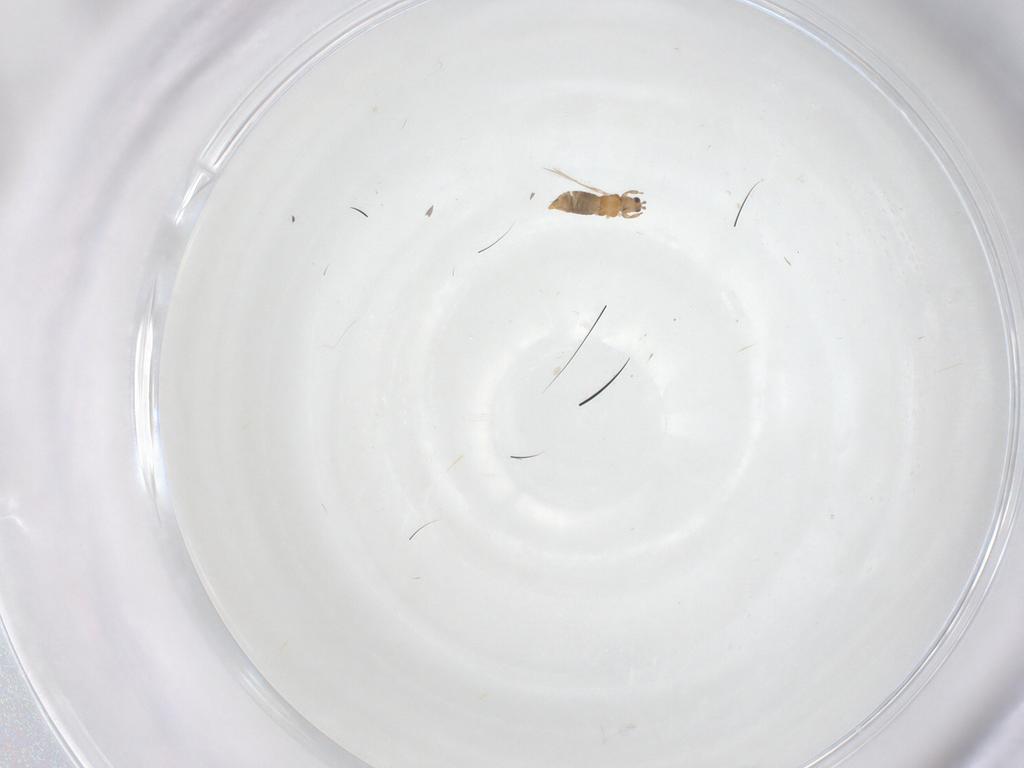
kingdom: Animalia
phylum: Arthropoda
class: Insecta
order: Thysanoptera
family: Thripidae
